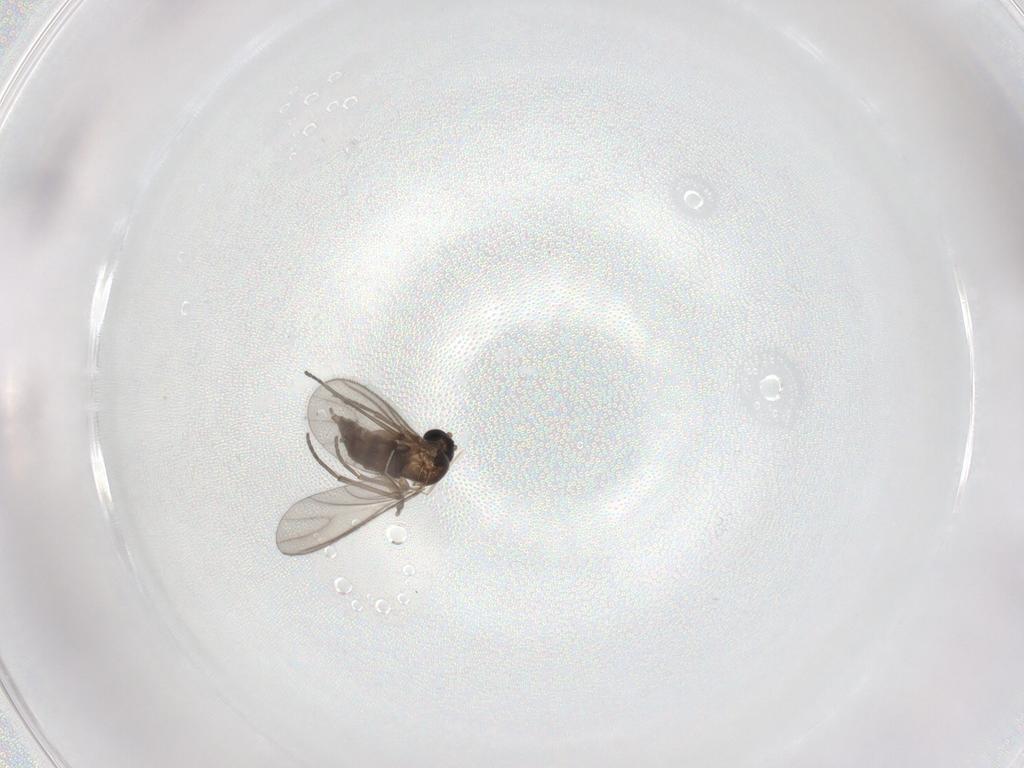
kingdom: Animalia
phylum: Arthropoda
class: Insecta
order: Diptera
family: Sciaridae
